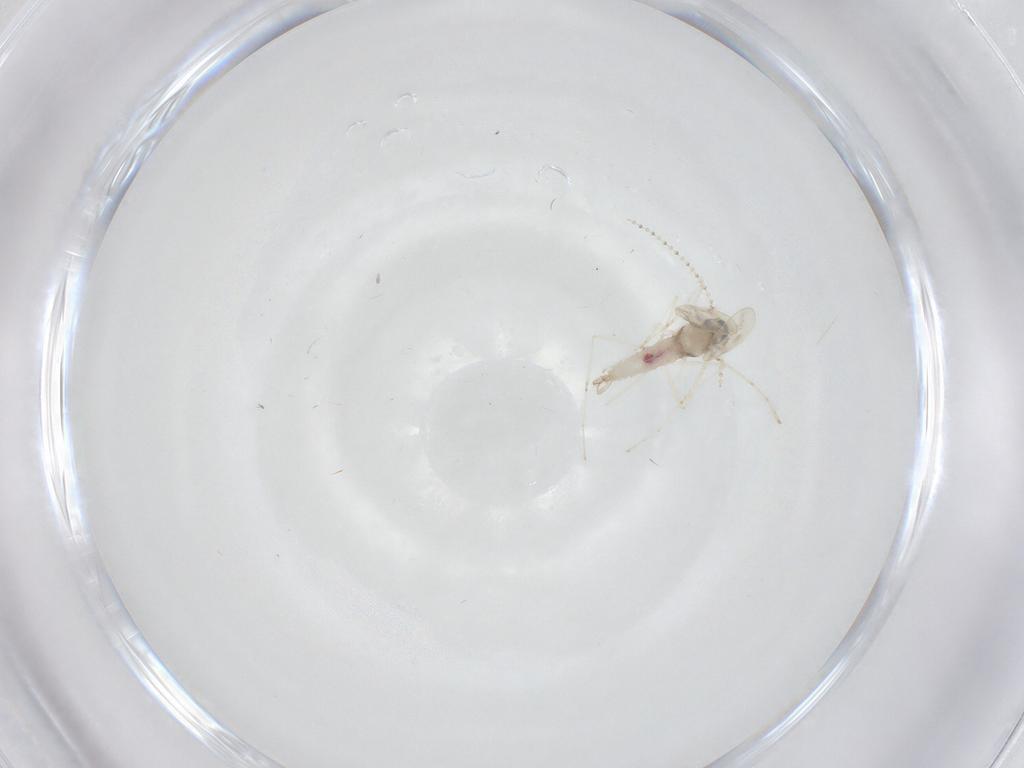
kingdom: Animalia
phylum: Arthropoda
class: Insecta
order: Diptera
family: Cecidomyiidae
